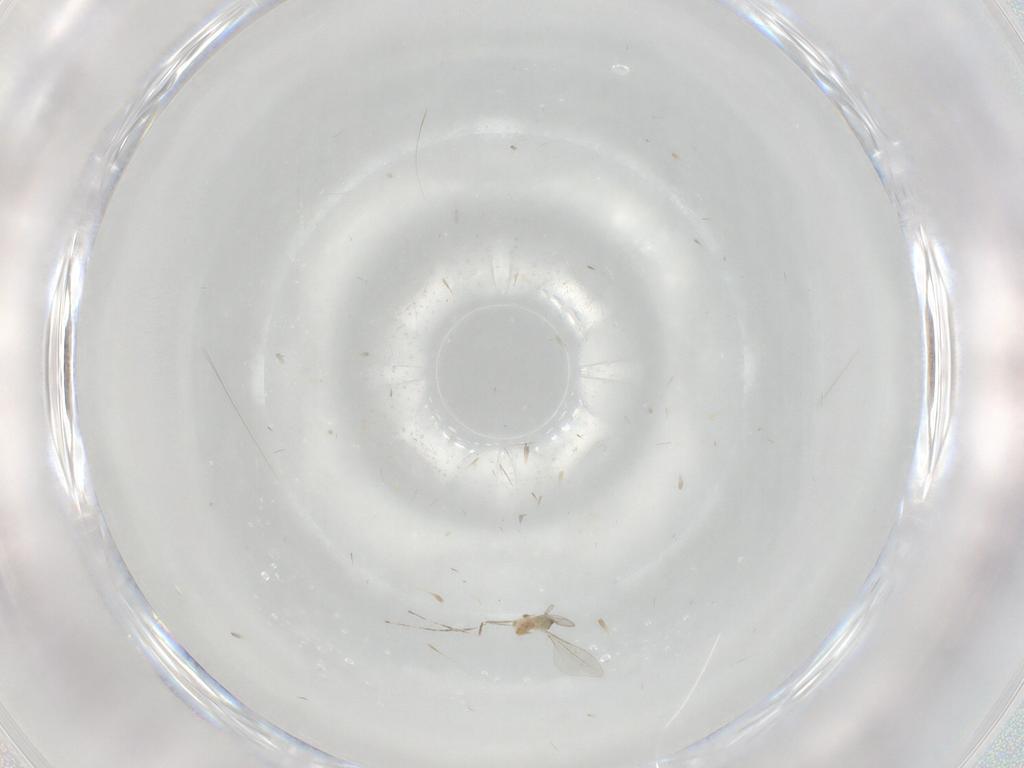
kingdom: Animalia
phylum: Arthropoda
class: Insecta
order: Diptera
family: Cecidomyiidae
